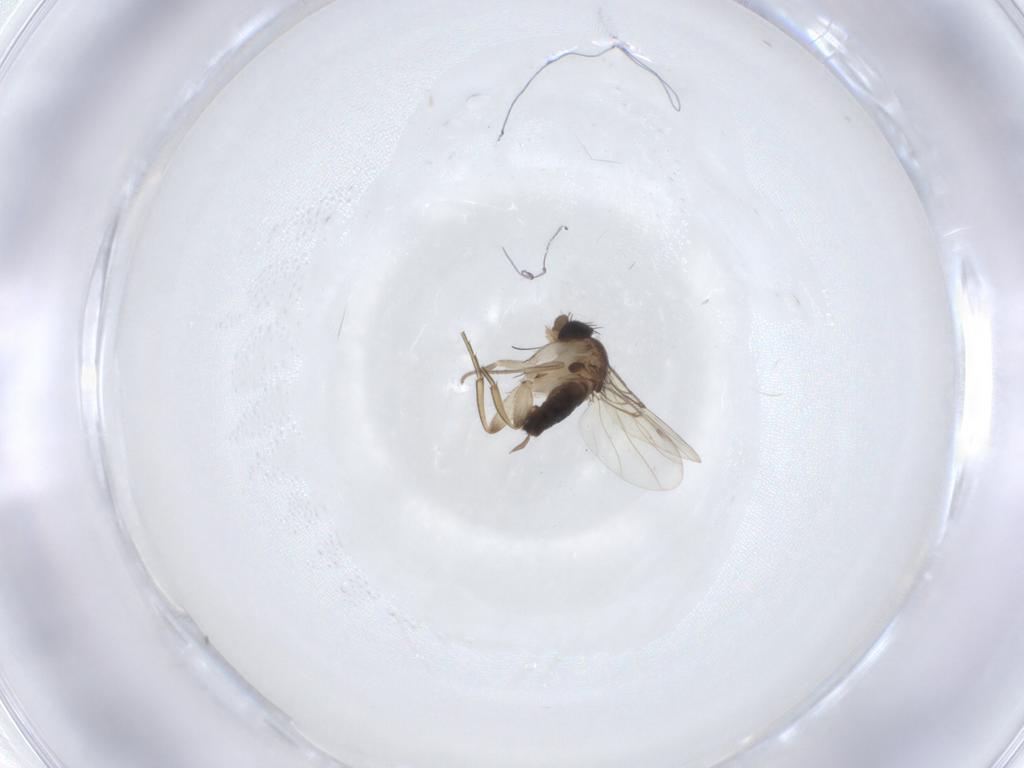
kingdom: Animalia
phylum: Arthropoda
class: Insecta
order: Diptera
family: Phoridae
